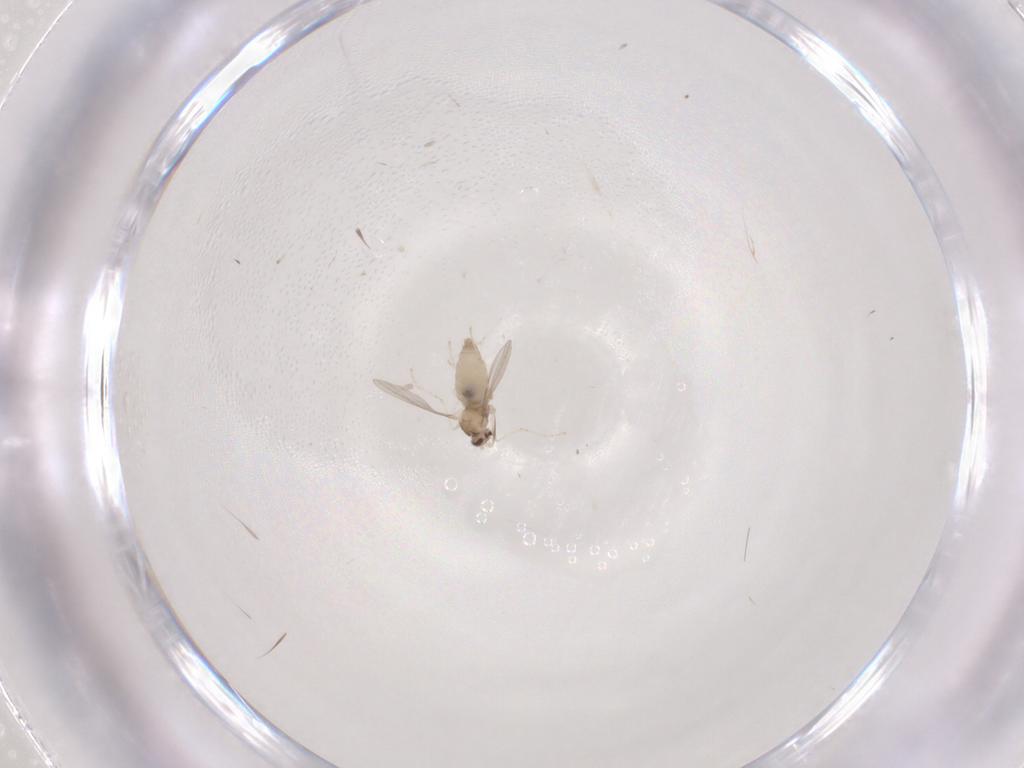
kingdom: Animalia
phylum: Arthropoda
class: Insecta
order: Diptera
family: Cecidomyiidae
